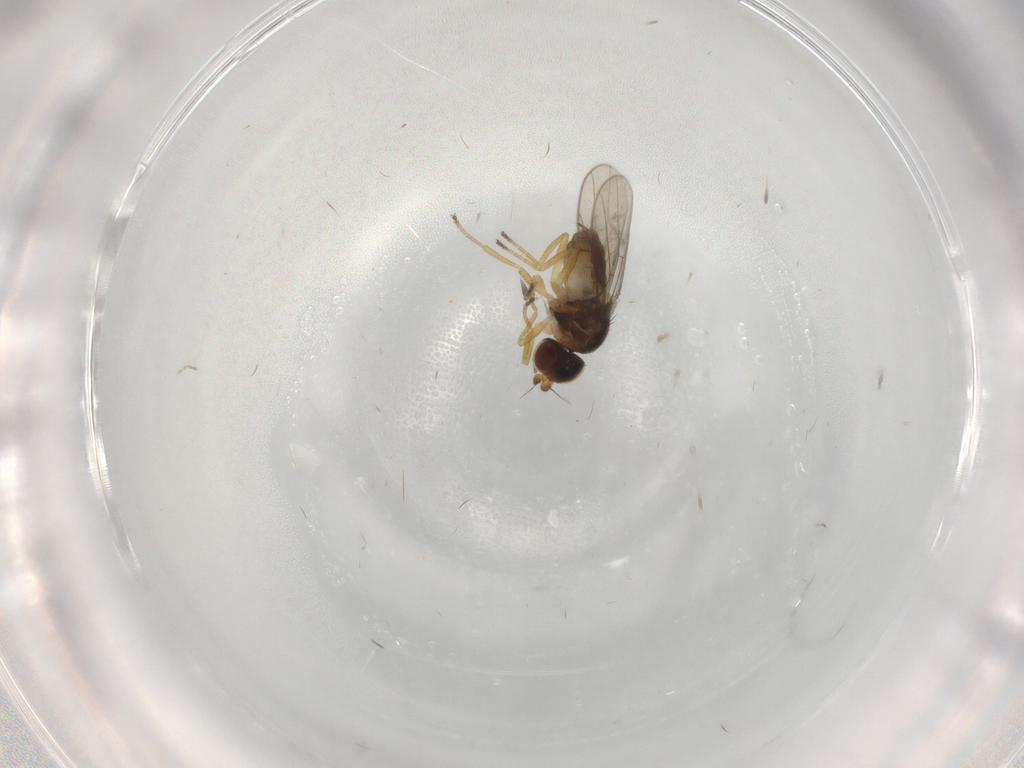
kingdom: Animalia
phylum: Arthropoda
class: Insecta
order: Diptera
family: Chloropidae
